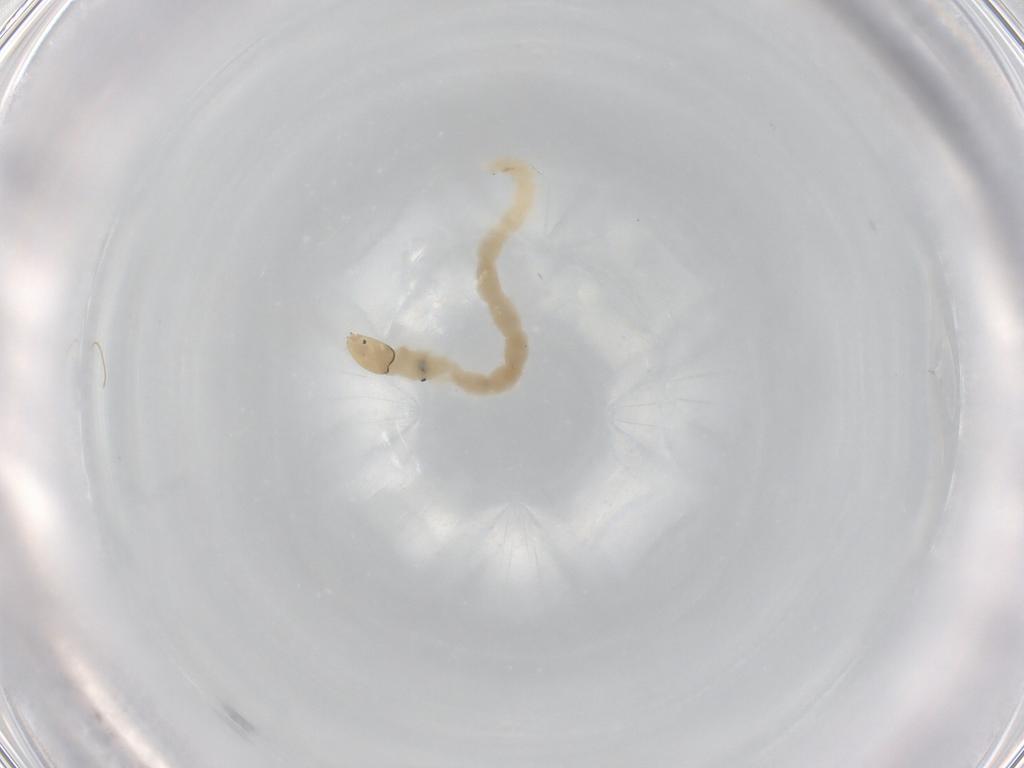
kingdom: Animalia
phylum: Arthropoda
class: Insecta
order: Diptera
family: Chironomidae
